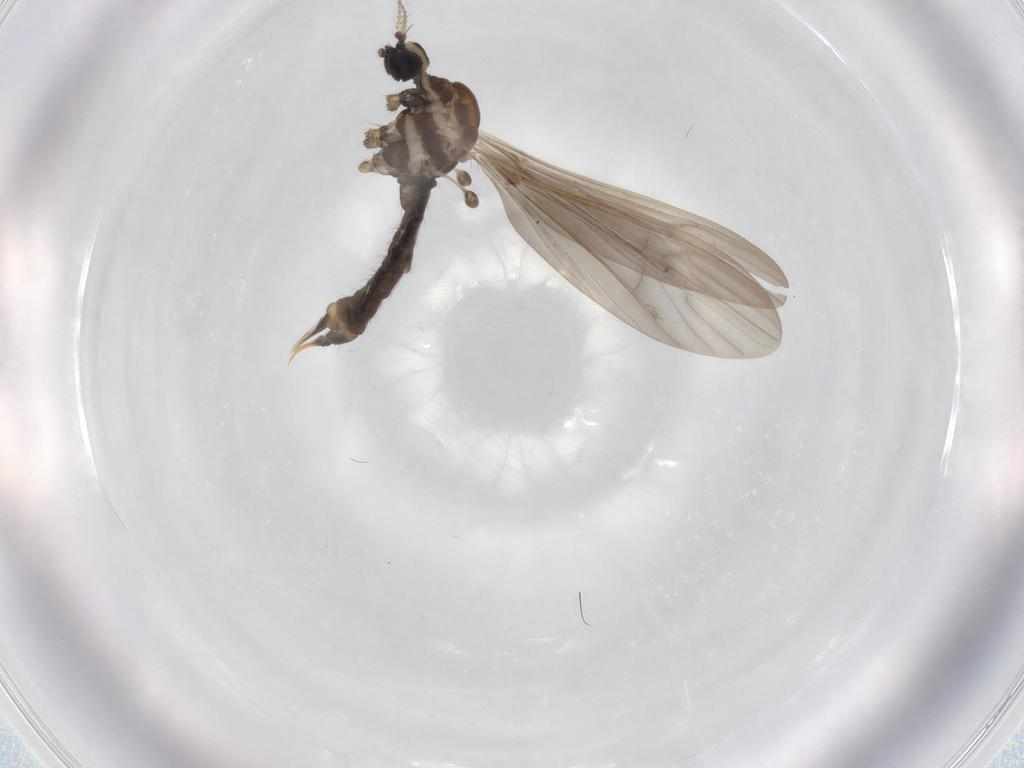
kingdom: Animalia
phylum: Arthropoda
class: Insecta
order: Diptera
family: Limoniidae
